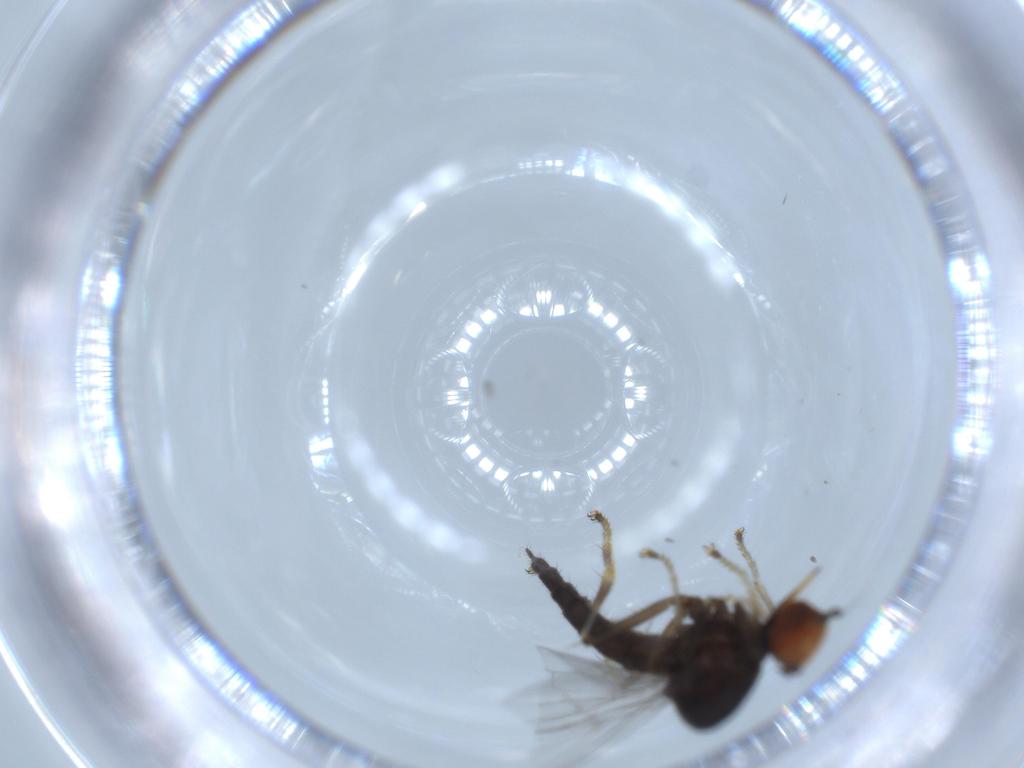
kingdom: Animalia
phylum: Arthropoda
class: Insecta
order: Diptera
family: Hybotidae
